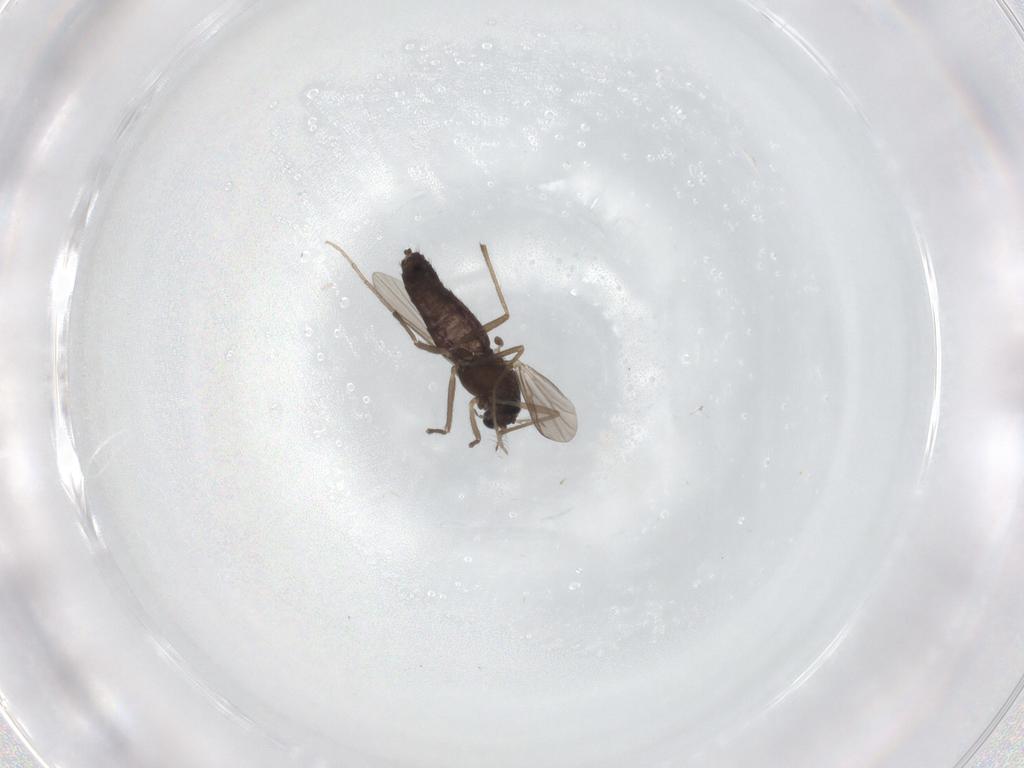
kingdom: Animalia
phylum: Arthropoda
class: Insecta
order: Diptera
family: Chironomidae
